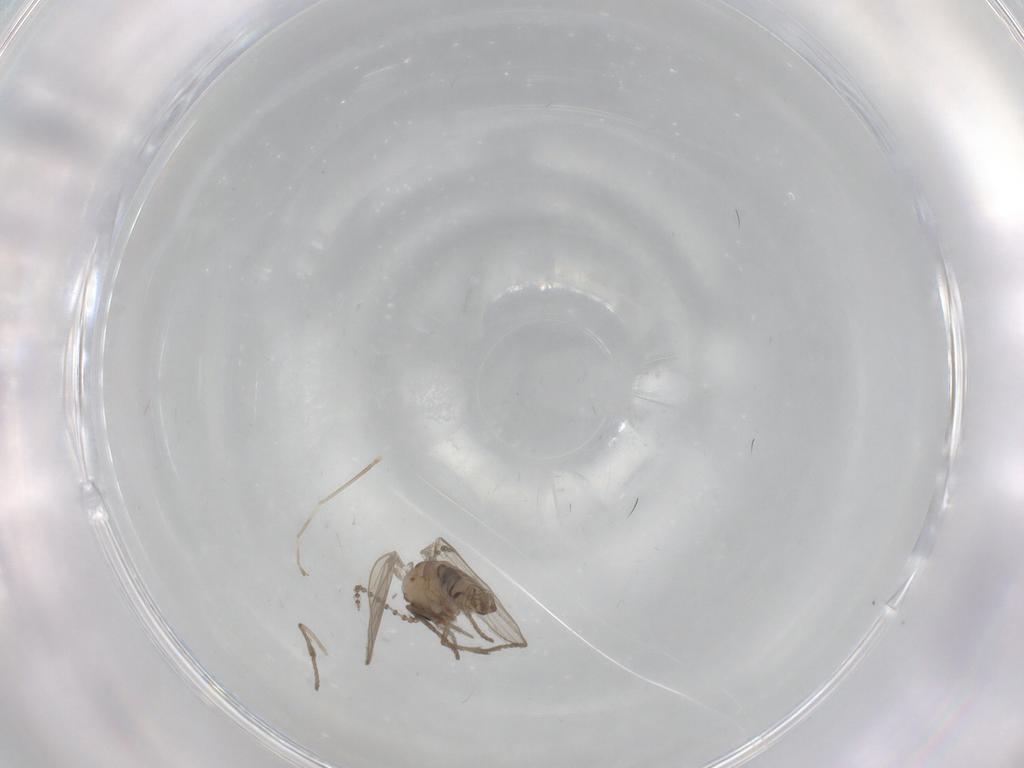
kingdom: Animalia
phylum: Arthropoda
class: Insecta
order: Diptera
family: Psychodidae
